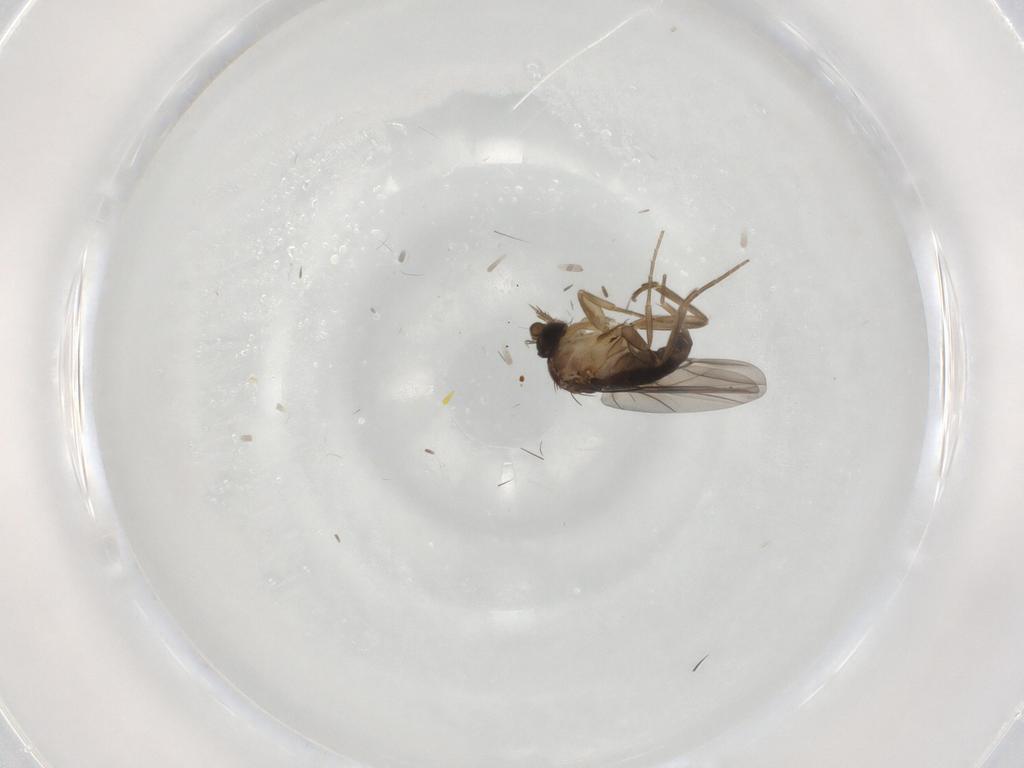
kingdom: Animalia
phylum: Arthropoda
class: Insecta
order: Diptera
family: Phoridae
